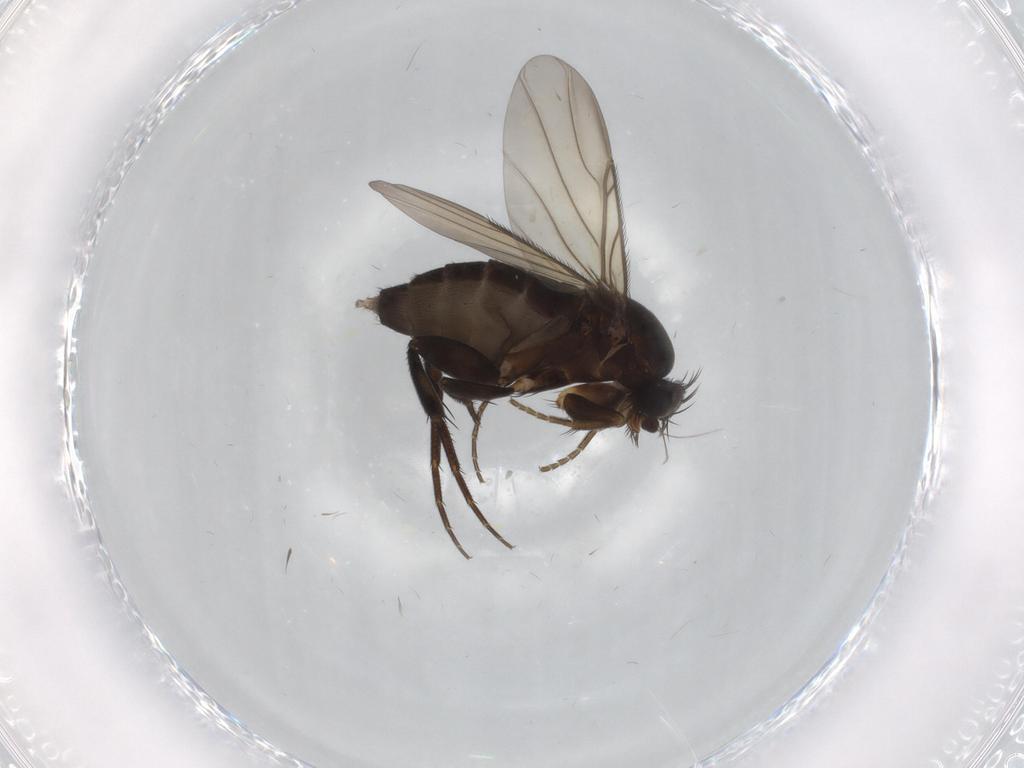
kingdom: Animalia
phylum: Arthropoda
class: Insecta
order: Diptera
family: Phoridae
